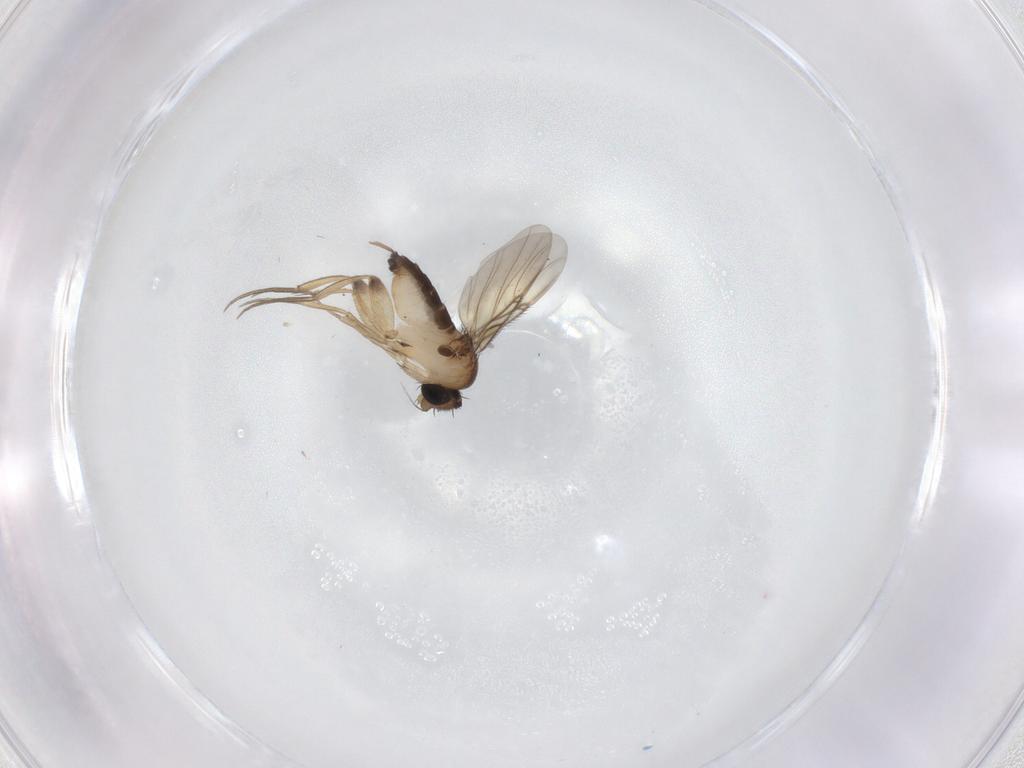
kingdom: Animalia
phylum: Arthropoda
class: Insecta
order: Diptera
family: Phoridae
